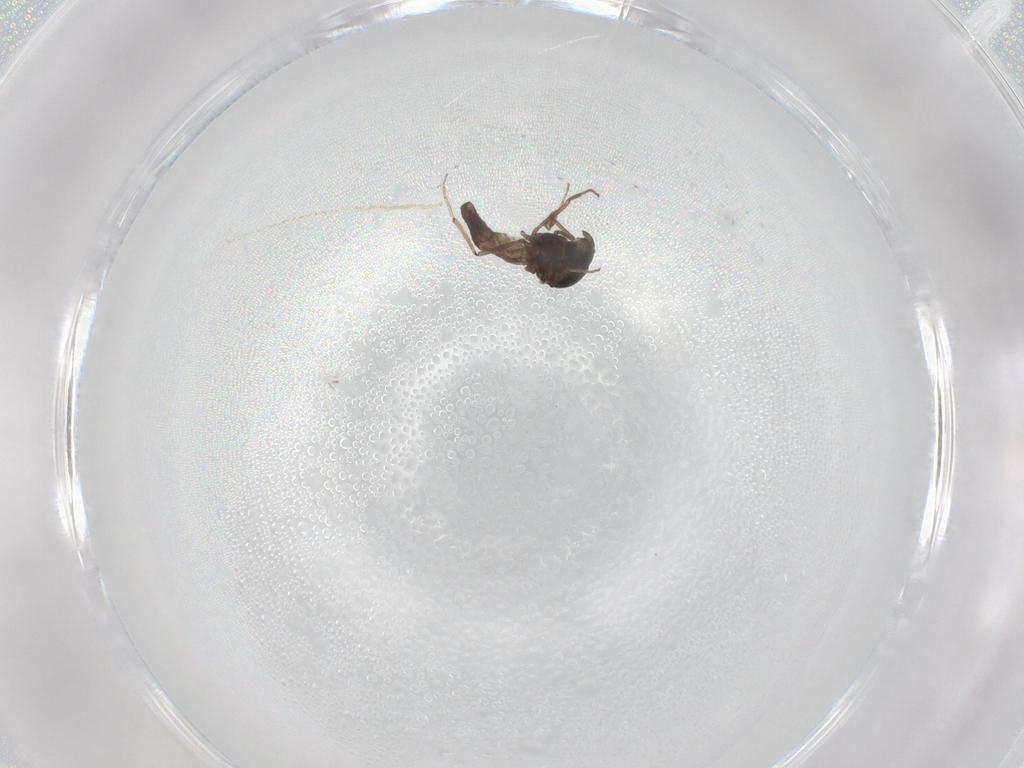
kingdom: Animalia
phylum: Arthropoda
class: Insecta
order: Diptera
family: Chironomidae
